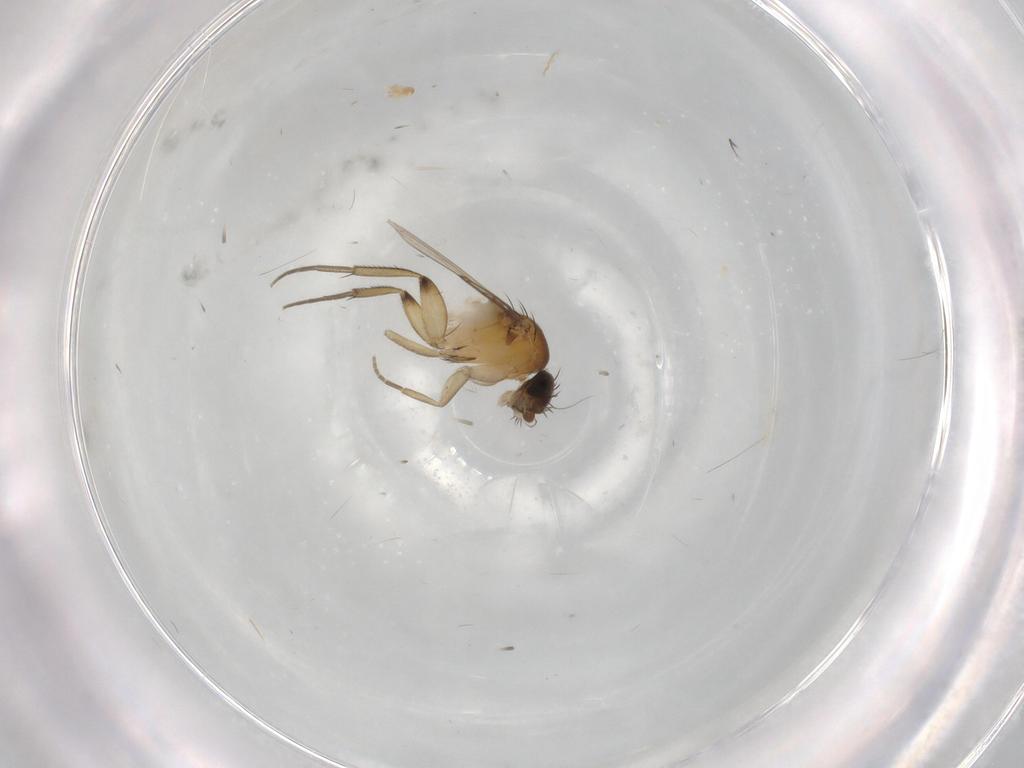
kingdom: Animalia
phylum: Arthropoda
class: Insecta
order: Diptera
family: Phoridae
